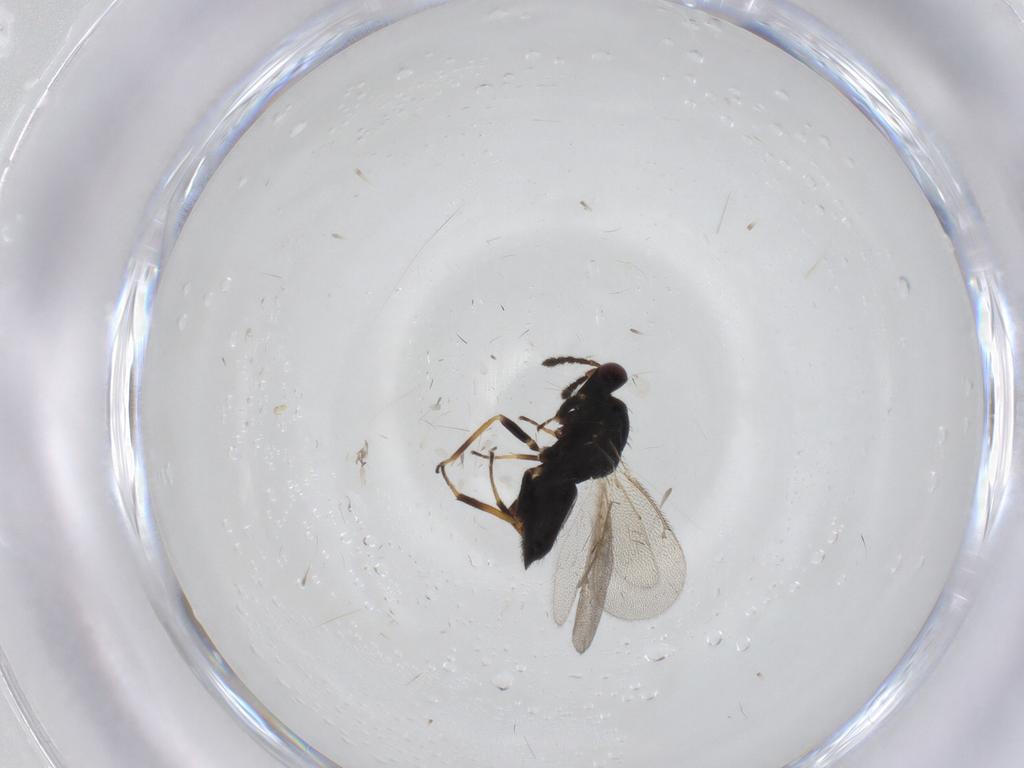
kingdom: Animalia
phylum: Arthropoda
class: Insecta
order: Hymenoptera
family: Eulophidae
